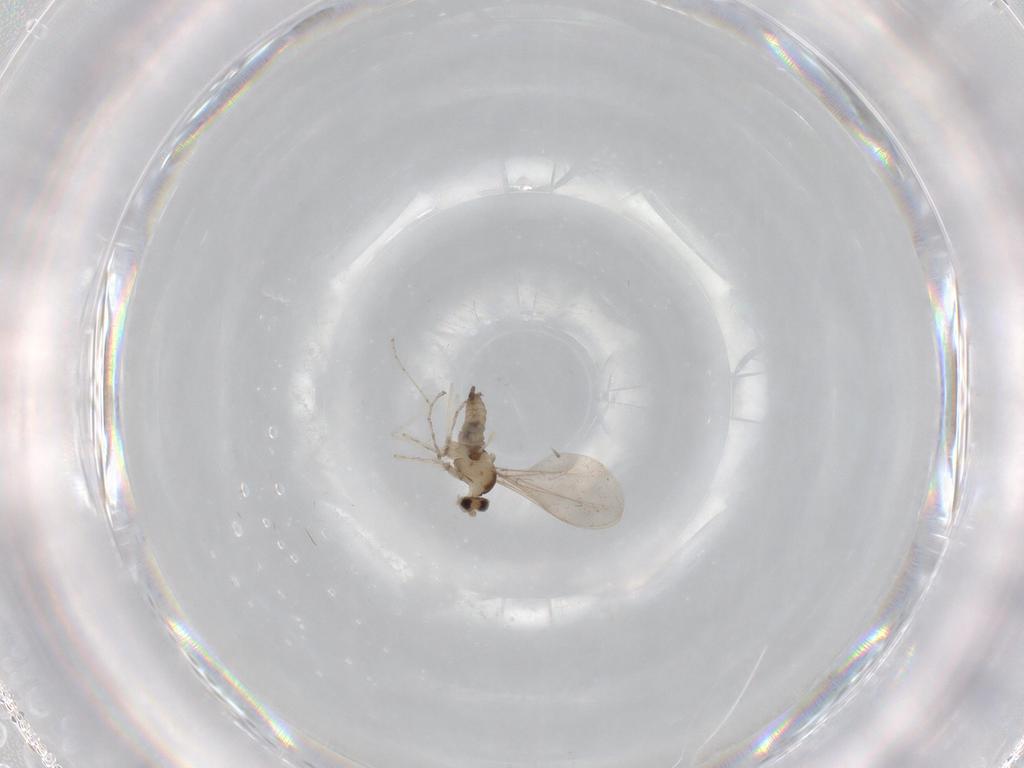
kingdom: Animalia
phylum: Arthropoda
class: Insecta
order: Diptera
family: Cecidomyiidae
